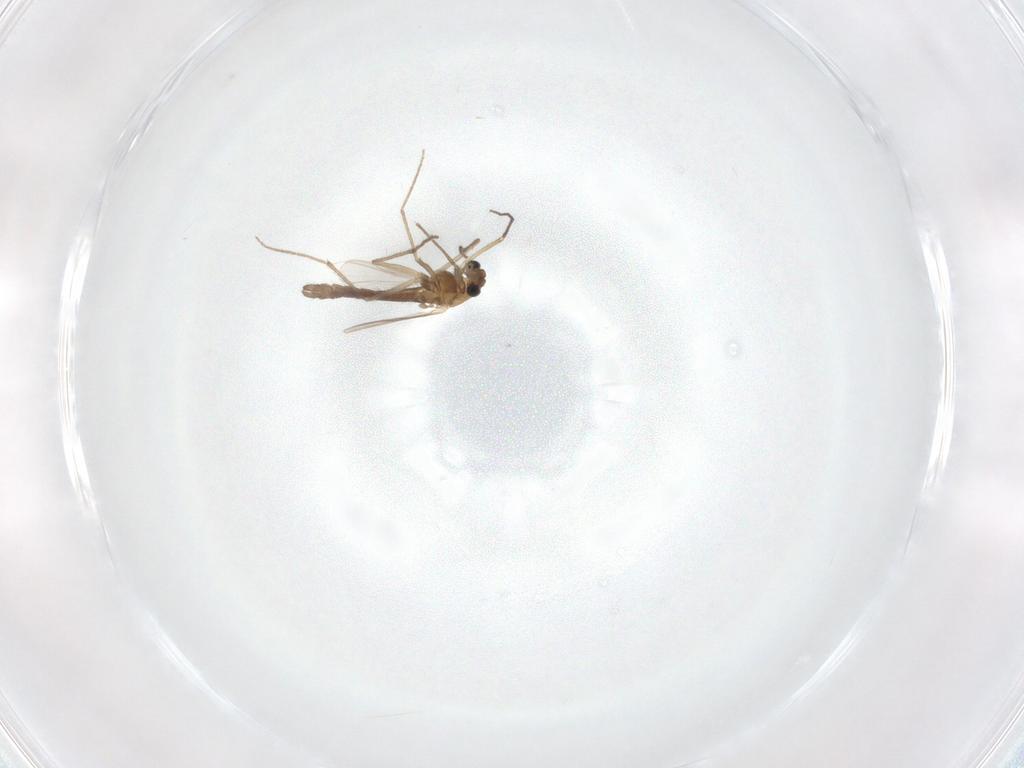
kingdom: Animalia
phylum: Arthropoda
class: Insecta
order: Diptera
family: Chironomidae
